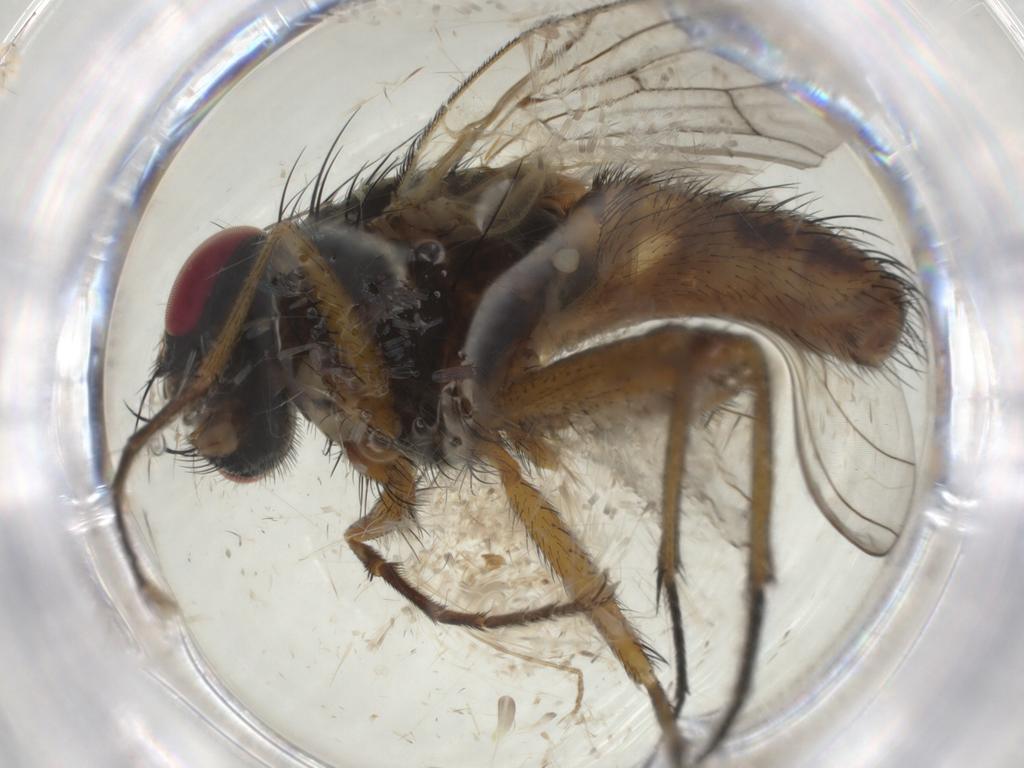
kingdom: Animalia
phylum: Arthropoda
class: Insecta
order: Diptera
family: Muscidae
